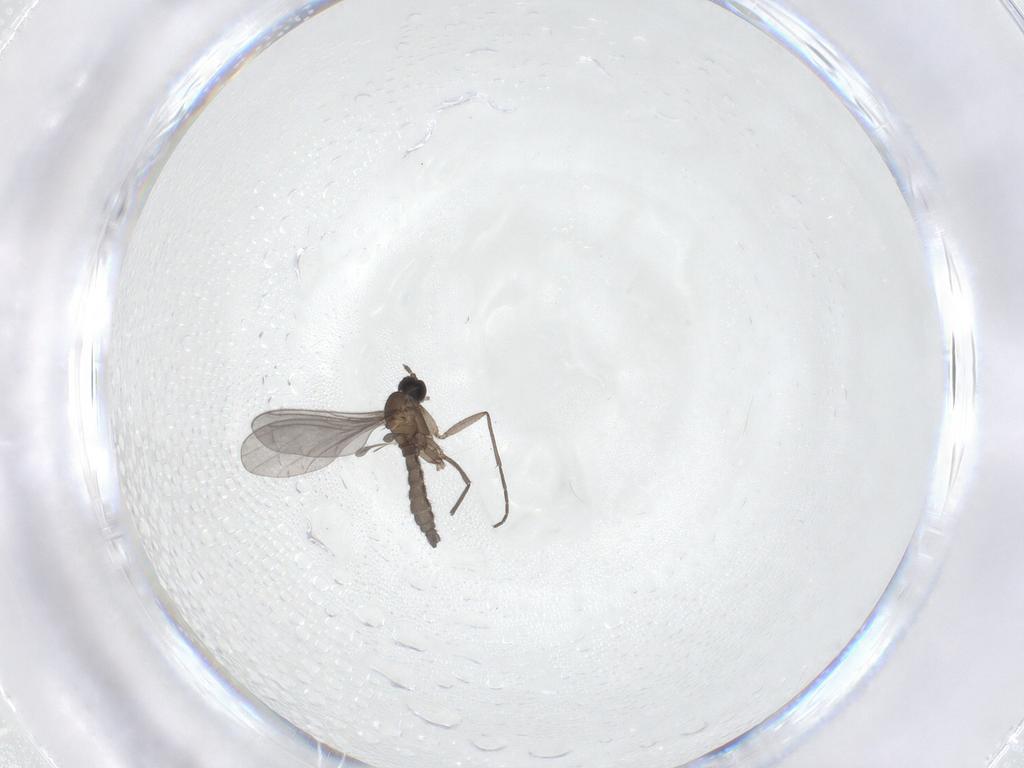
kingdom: Animalia
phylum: Arthropoda
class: Insecta
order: Diptera
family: Sciaridae
